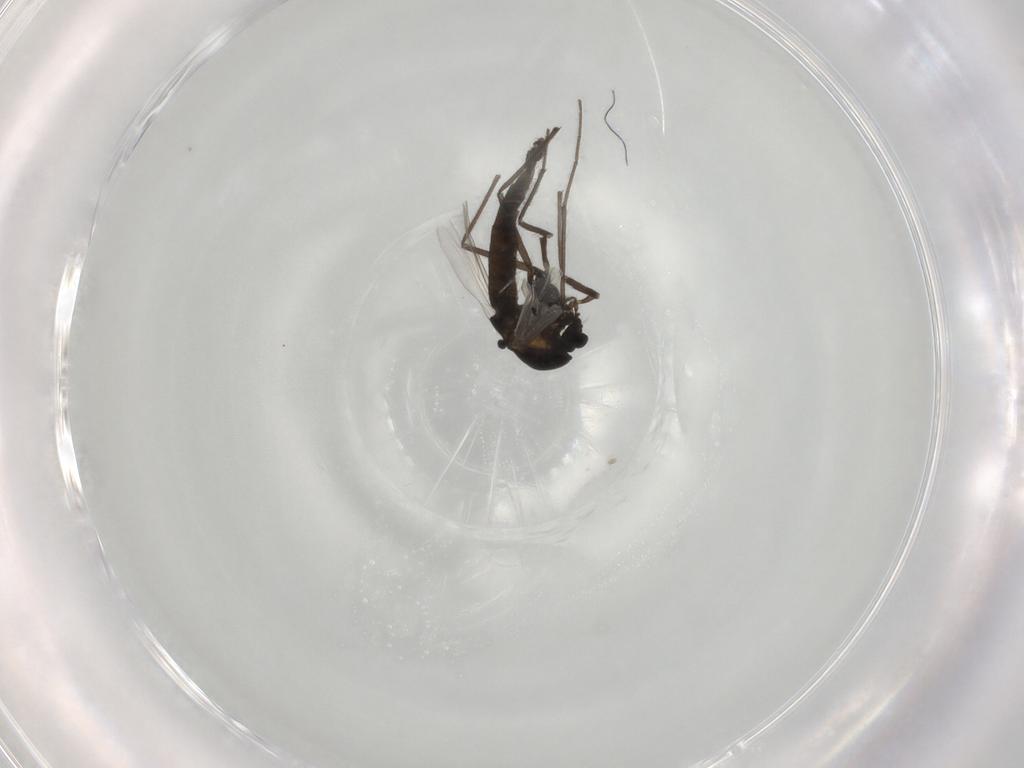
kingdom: Animalia
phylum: Arthropoda
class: Insecta
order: Diptera
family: Chironomidae
